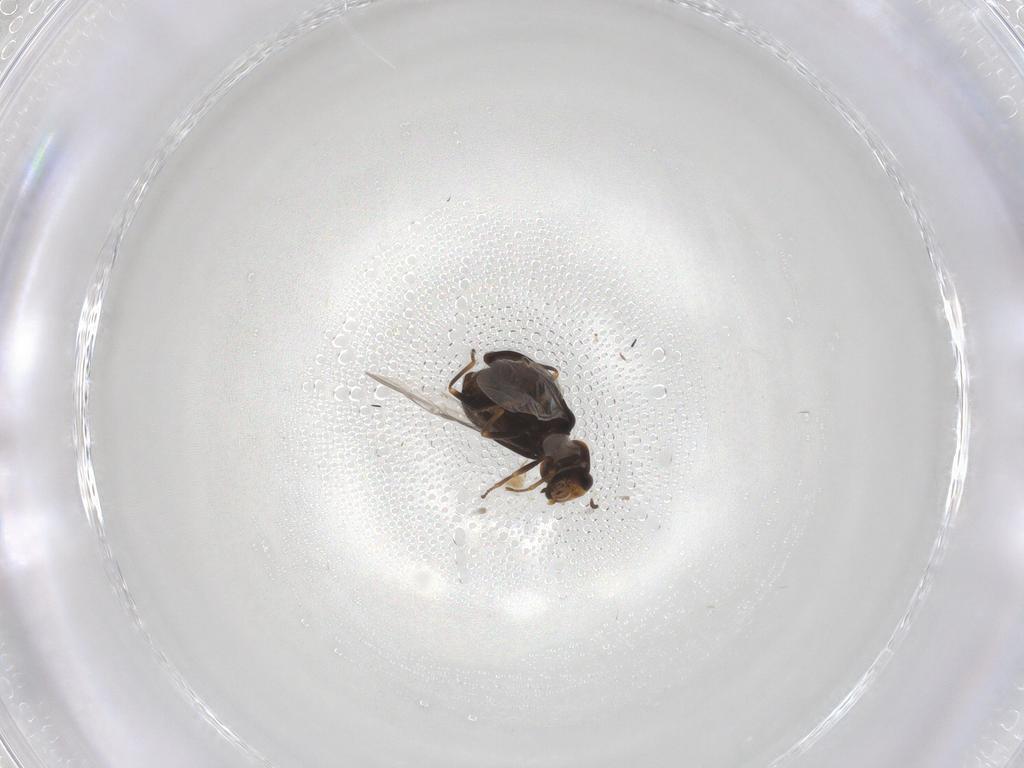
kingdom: Animalia
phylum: Arthropoda
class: Insecta
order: Coleoptera
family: Melyridae
